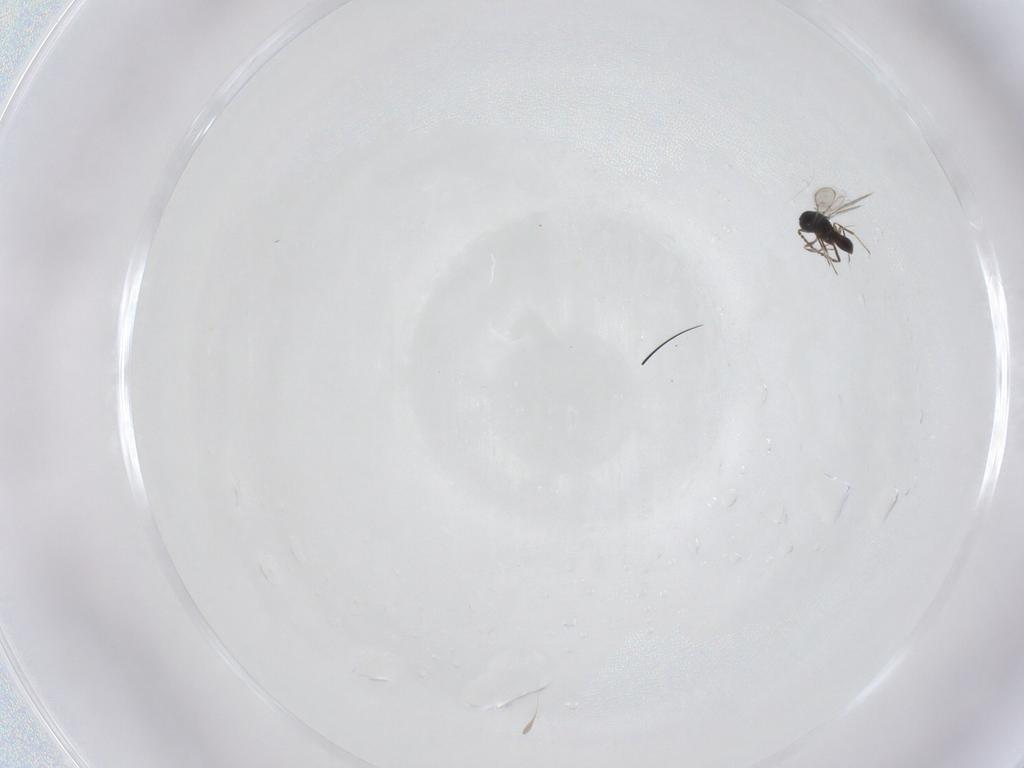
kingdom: Animalia
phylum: Arthropoda
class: Insecta
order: Hymenoptera
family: Scelionidae
